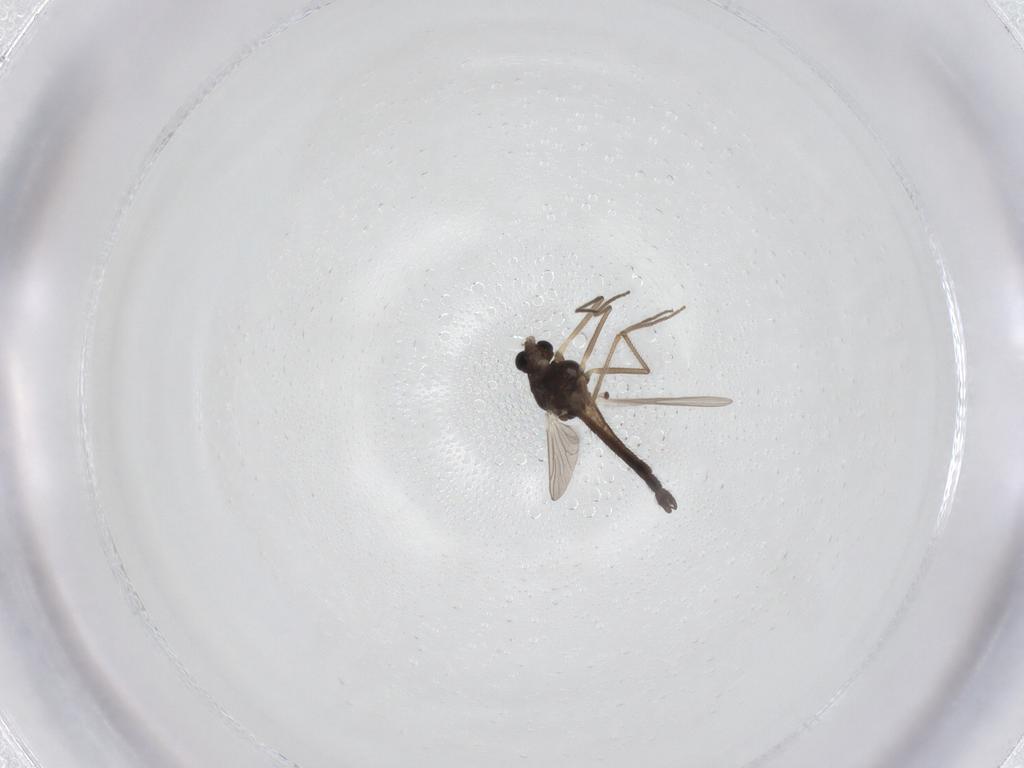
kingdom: Animalia
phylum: Arthropoda
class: Insecta
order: Diptera
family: Chironomidae
